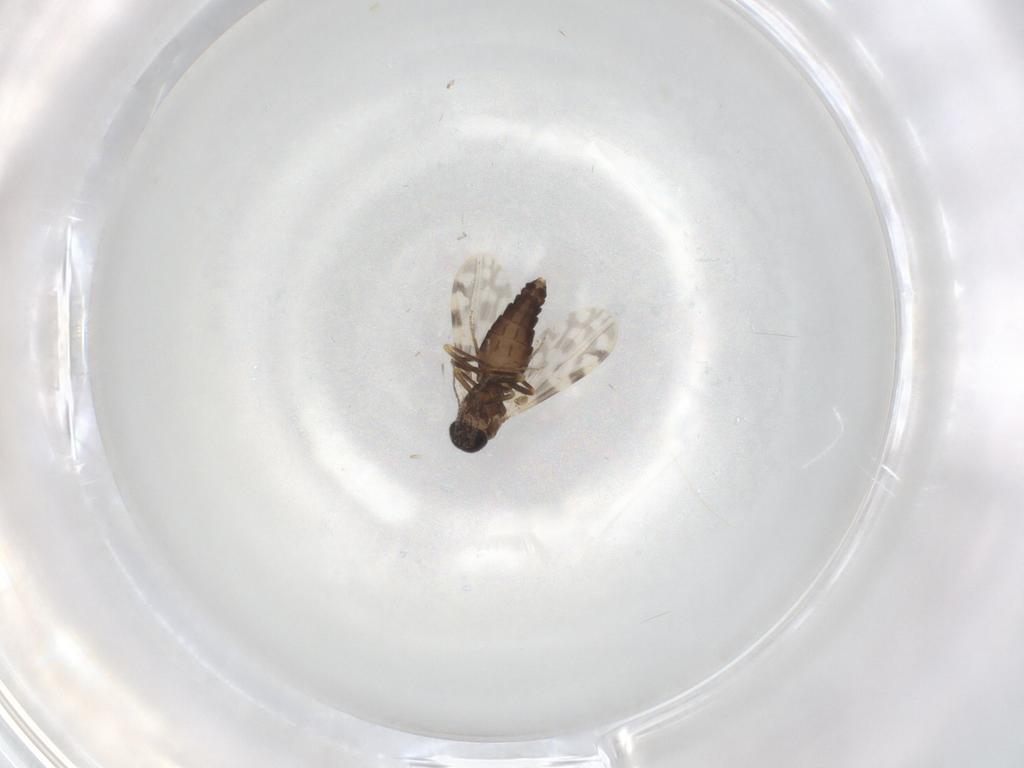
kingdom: Animalia
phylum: Arthropoda
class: Insecta
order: Diptera
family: Ceratopogonidae
